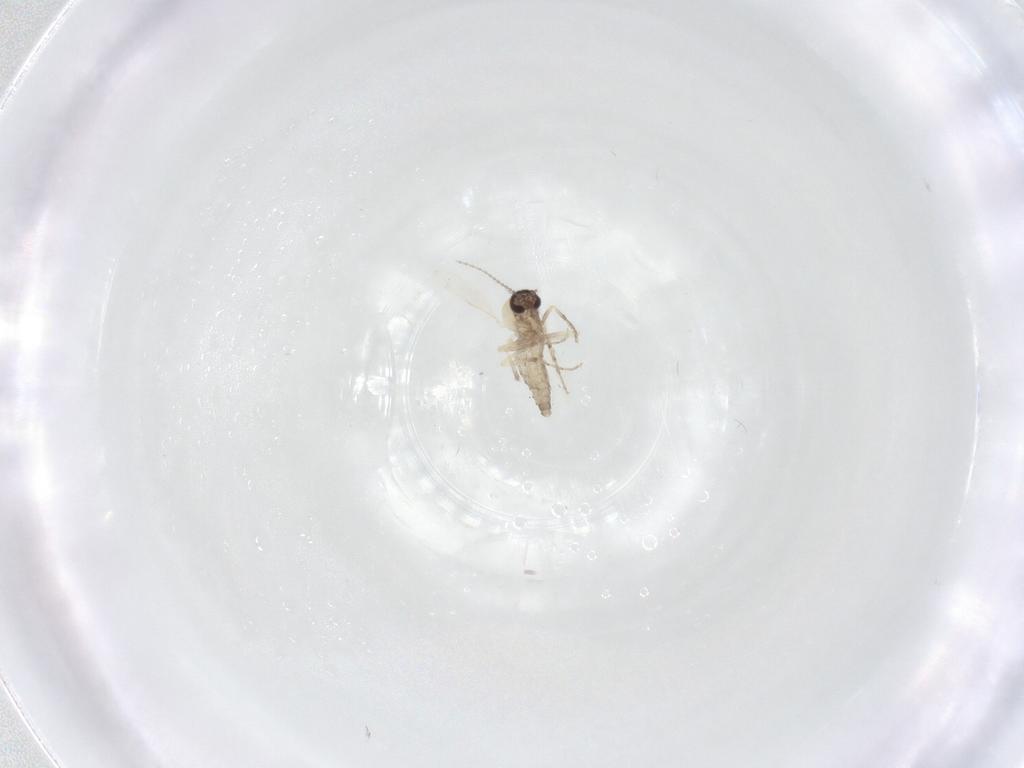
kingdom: Animalia
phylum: Arthropoda
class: Insecta
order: Diptera
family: Ceratopogonidae
